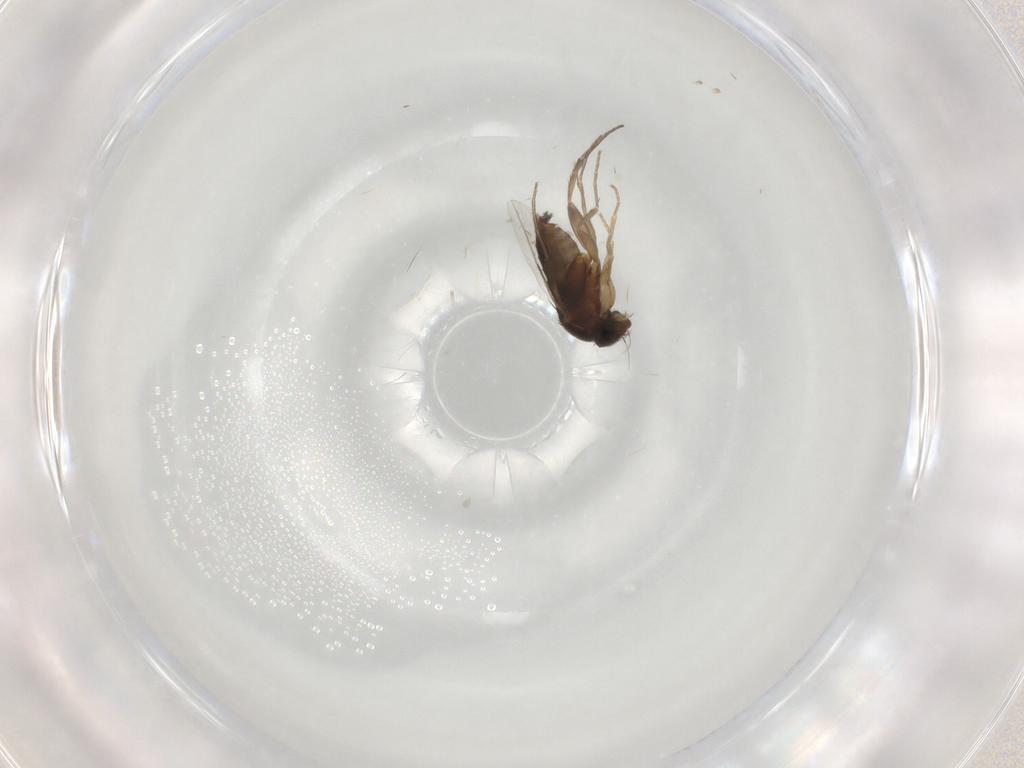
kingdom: Animalia
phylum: Arthropoda
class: Insecta
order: Diptera
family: Phoridae
